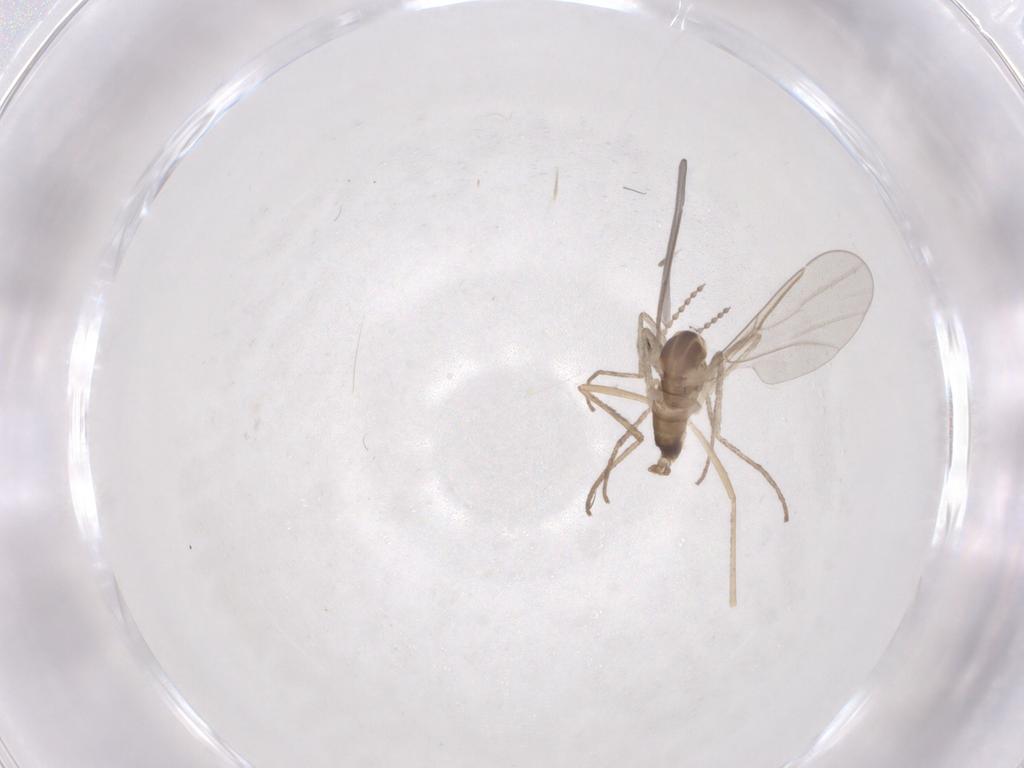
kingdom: Animalia
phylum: Arthropoda
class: Insecta
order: Diptera
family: Cecidomyiidae
